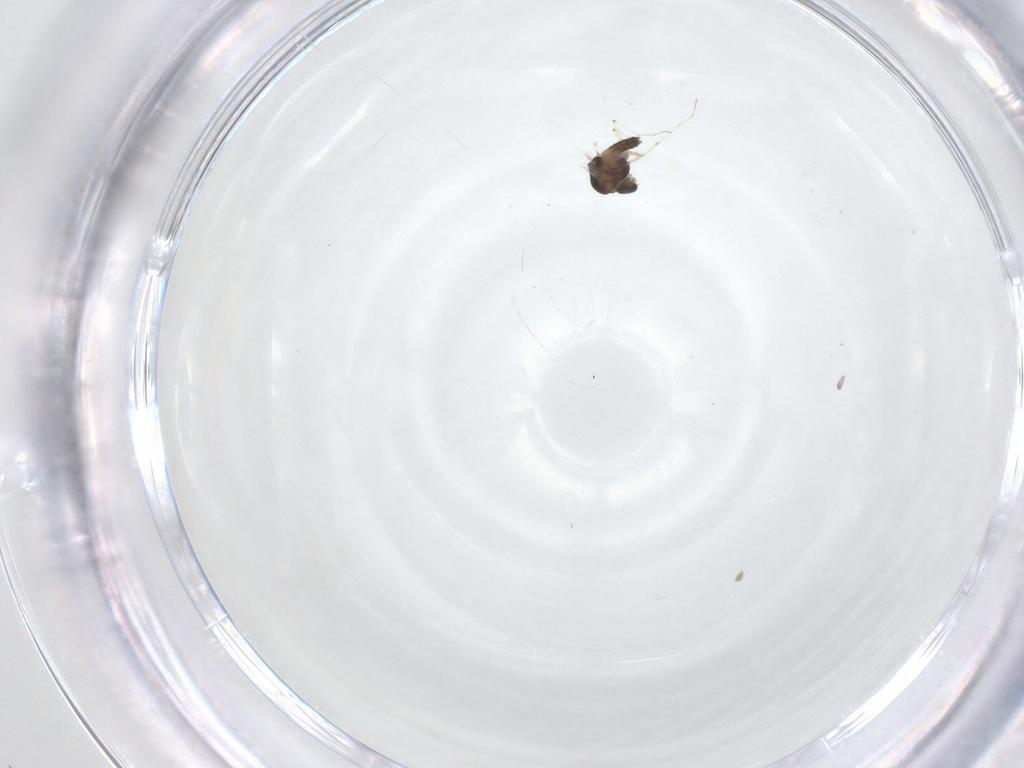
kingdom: Animalia
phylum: Arthropoda
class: Insecta
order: Diptera
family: Chironomidae
